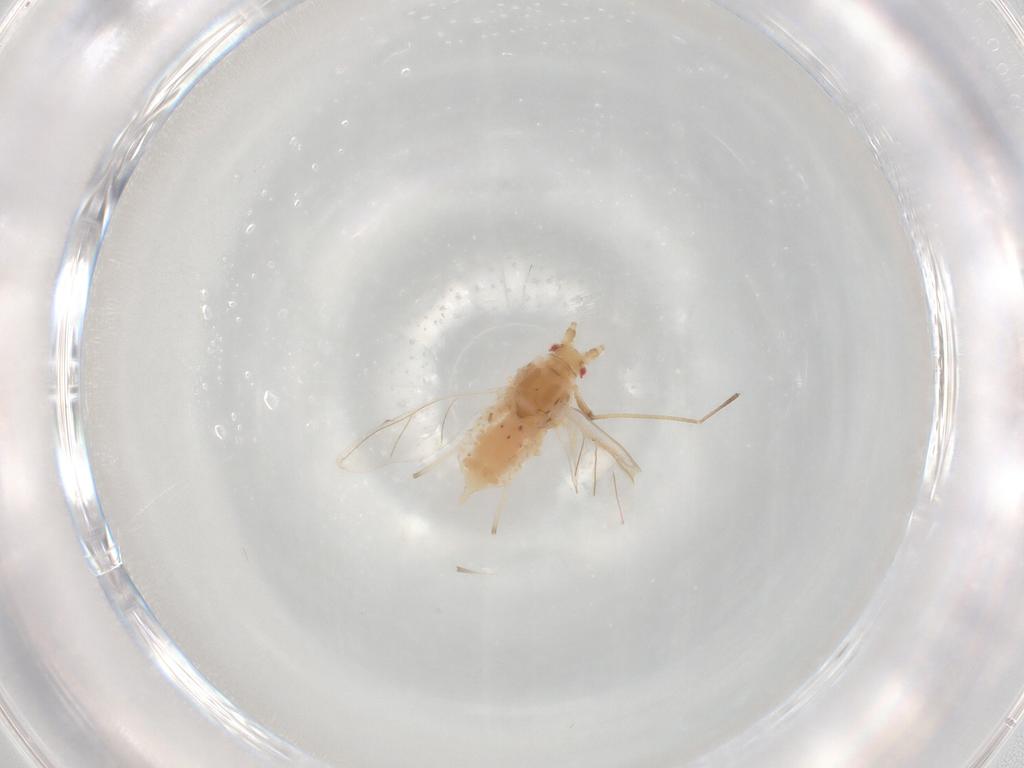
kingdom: Animalia
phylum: Arthropoda
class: Insecta
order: Hemiptera
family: Aphididae
